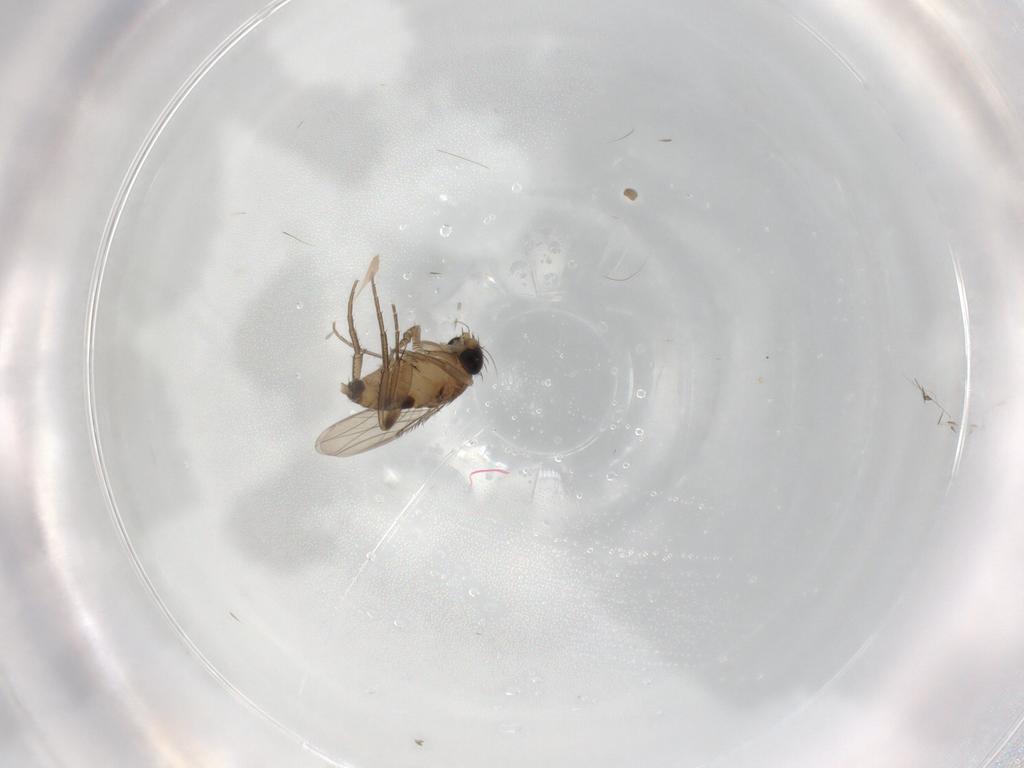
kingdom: Animalia
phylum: Arthropoda
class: Insecta
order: Diptera
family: Phoridae
